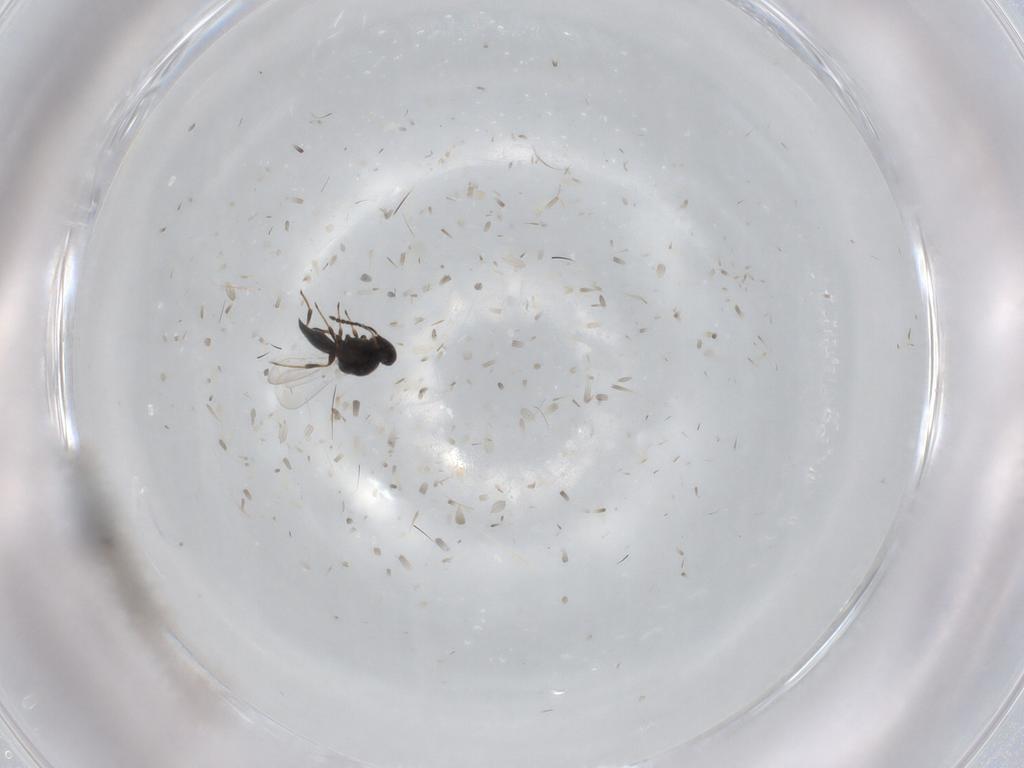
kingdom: Animalia
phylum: Arthropoda
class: Insecta
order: Hymenoptera
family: Platygastridae
